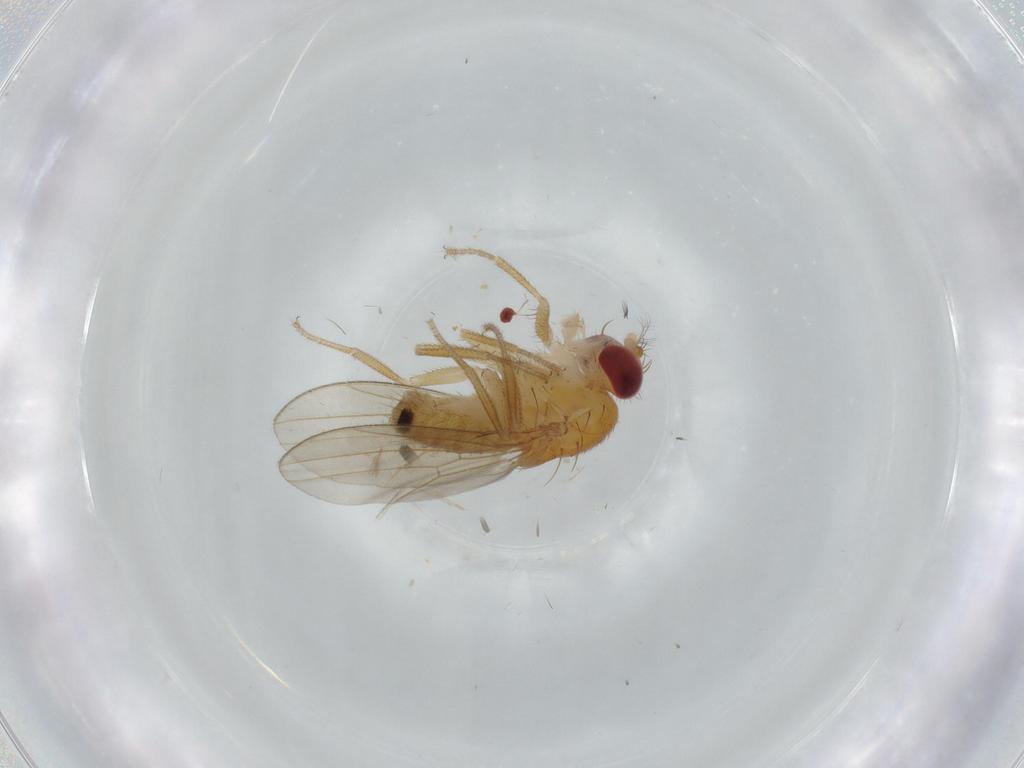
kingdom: Animalia
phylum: Arthropoda
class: Insecta
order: Diptera
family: Drosophilidae
